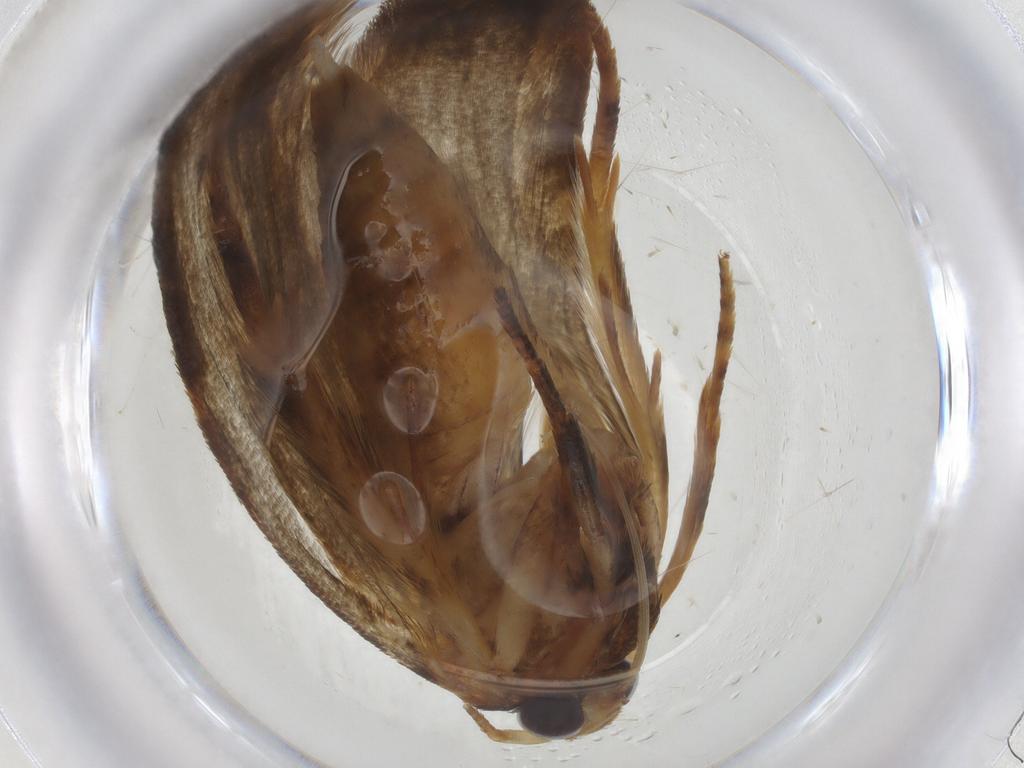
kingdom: Animalia
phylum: Arthropoda
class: Insecta
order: Lepidoptera
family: Blastobasidae
